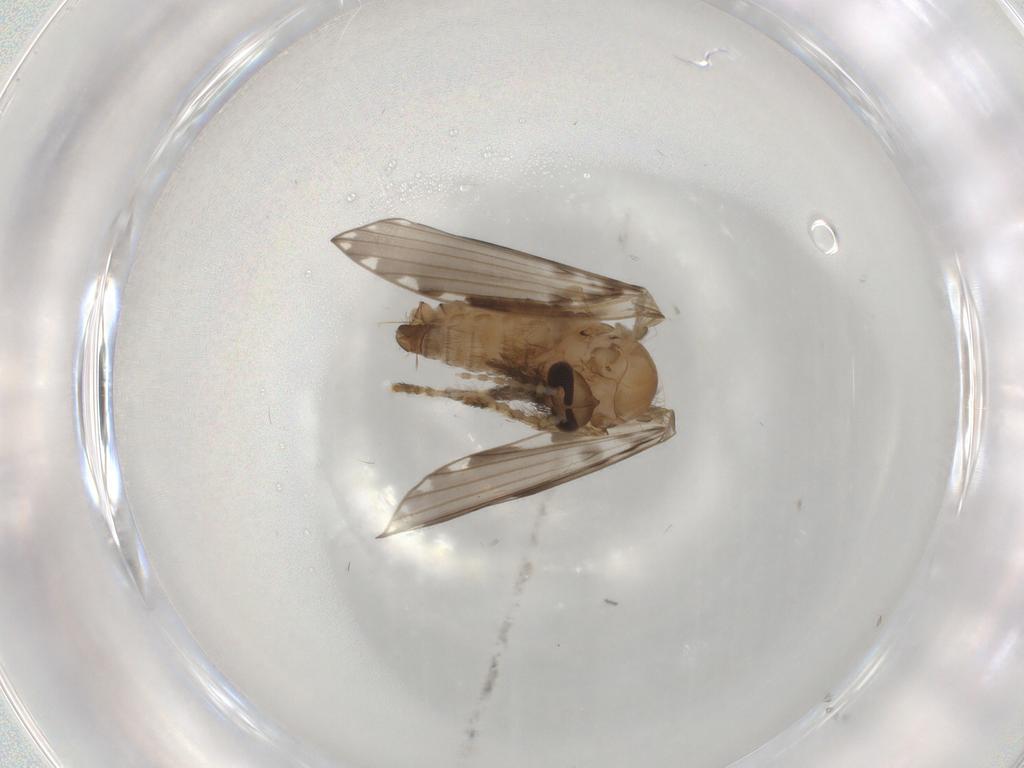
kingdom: Animalia
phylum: Arthropoda
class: Insecta
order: Diptera
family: Psychodidae
